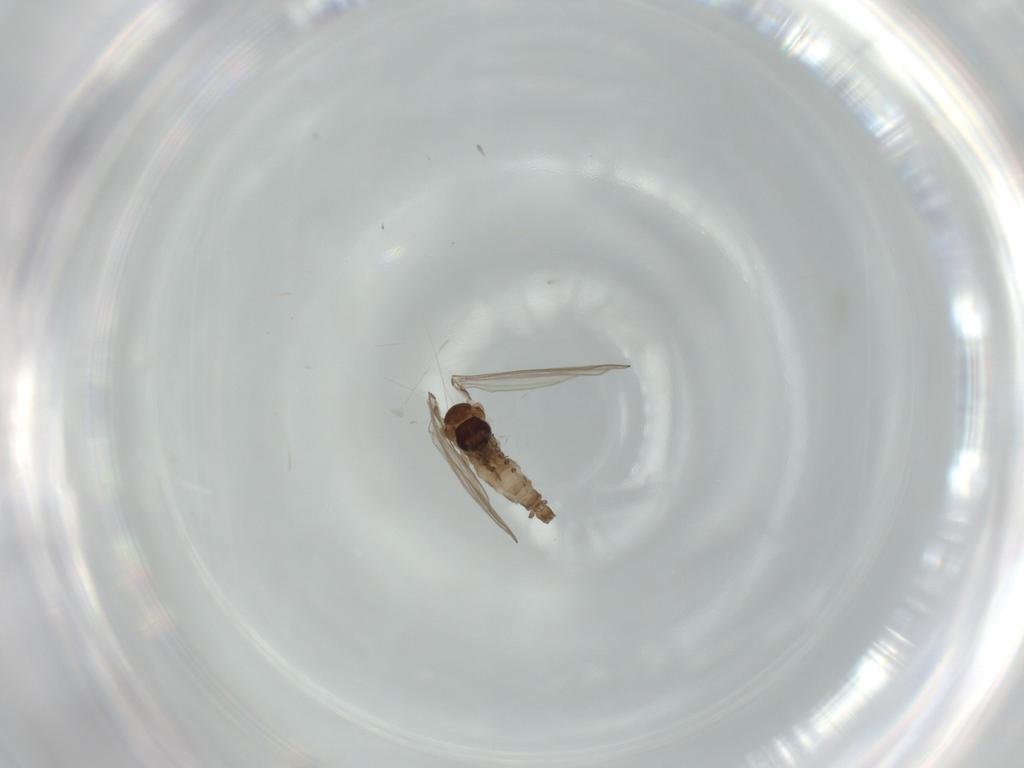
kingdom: Animalia
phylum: Arthropoda
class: Insecta
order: Diptera
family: Psychodidae
